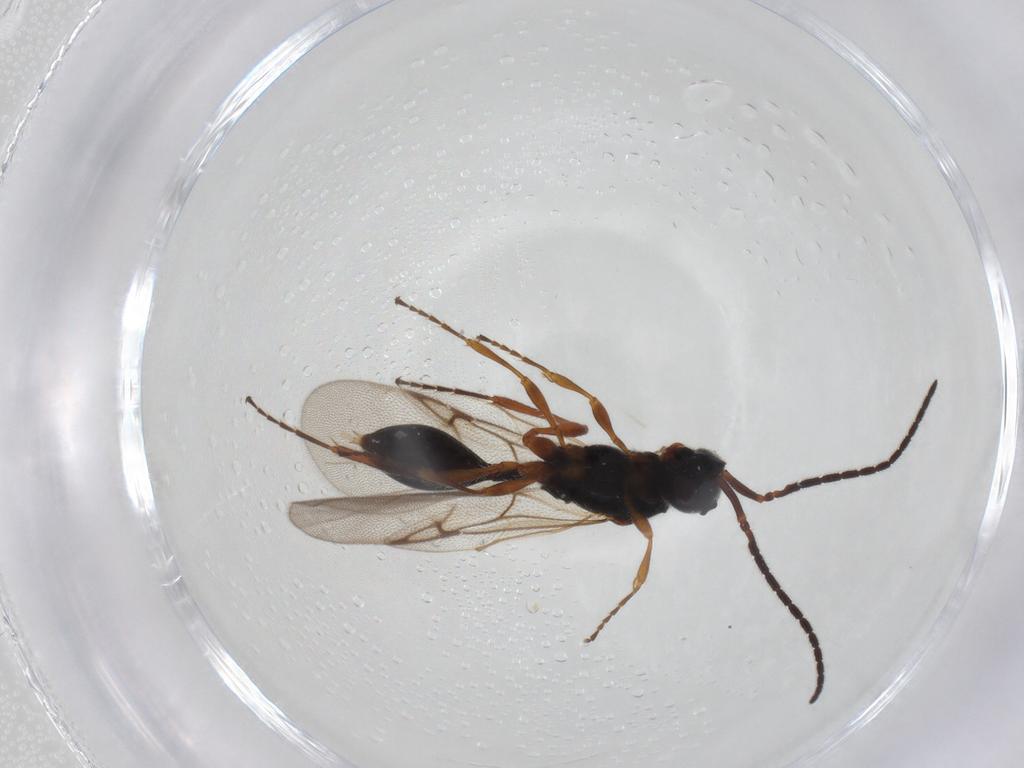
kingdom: Animalia
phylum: Arthropoda
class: Insecta
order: Hymenoptera
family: Diapriidae
